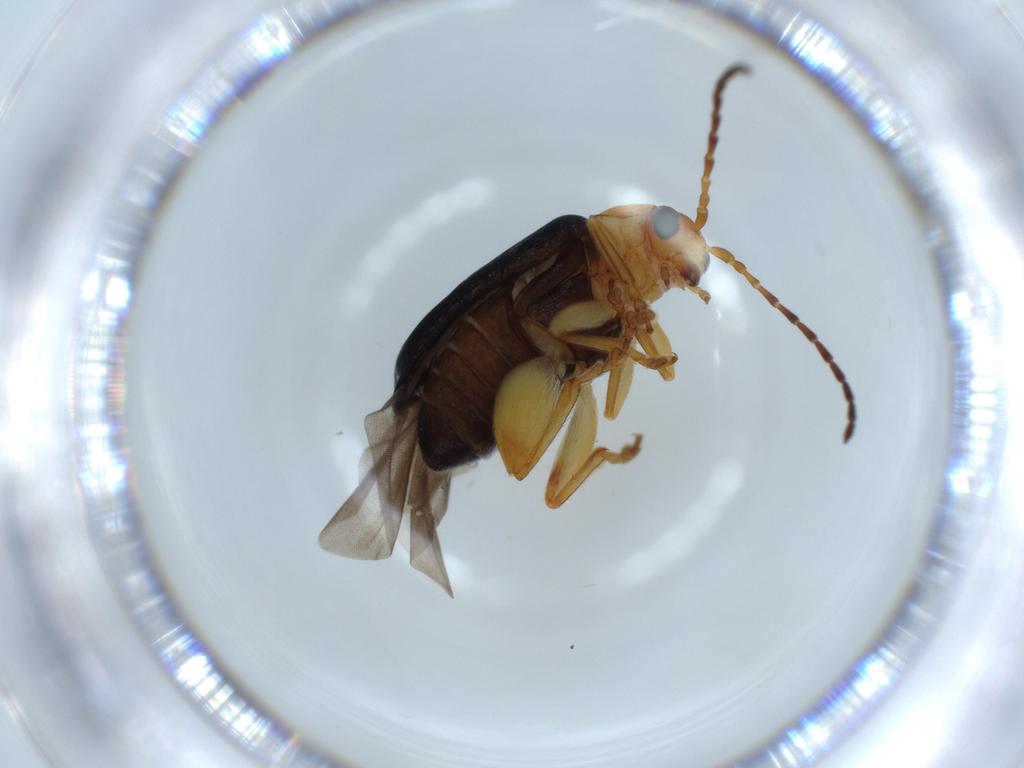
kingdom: Animalia
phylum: Arthropoda
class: Insecta
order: Coleoptera
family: Chrysomelidae
